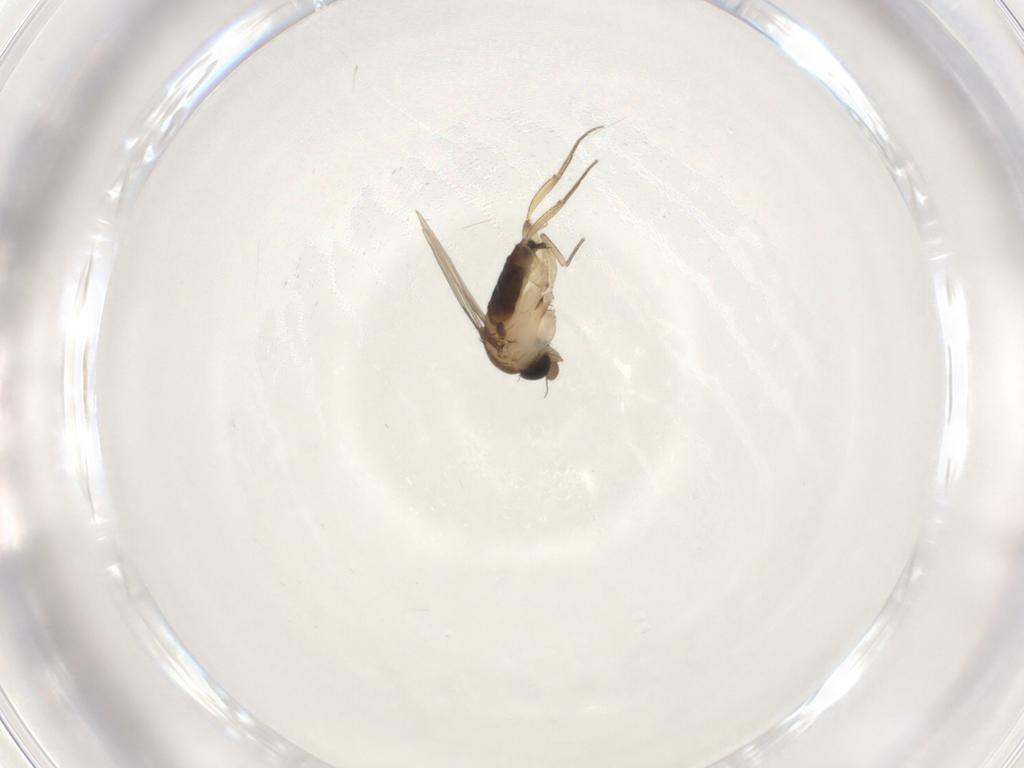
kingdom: Animalia
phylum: Arthropoda
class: Insecta
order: Diptera
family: Phoridae
